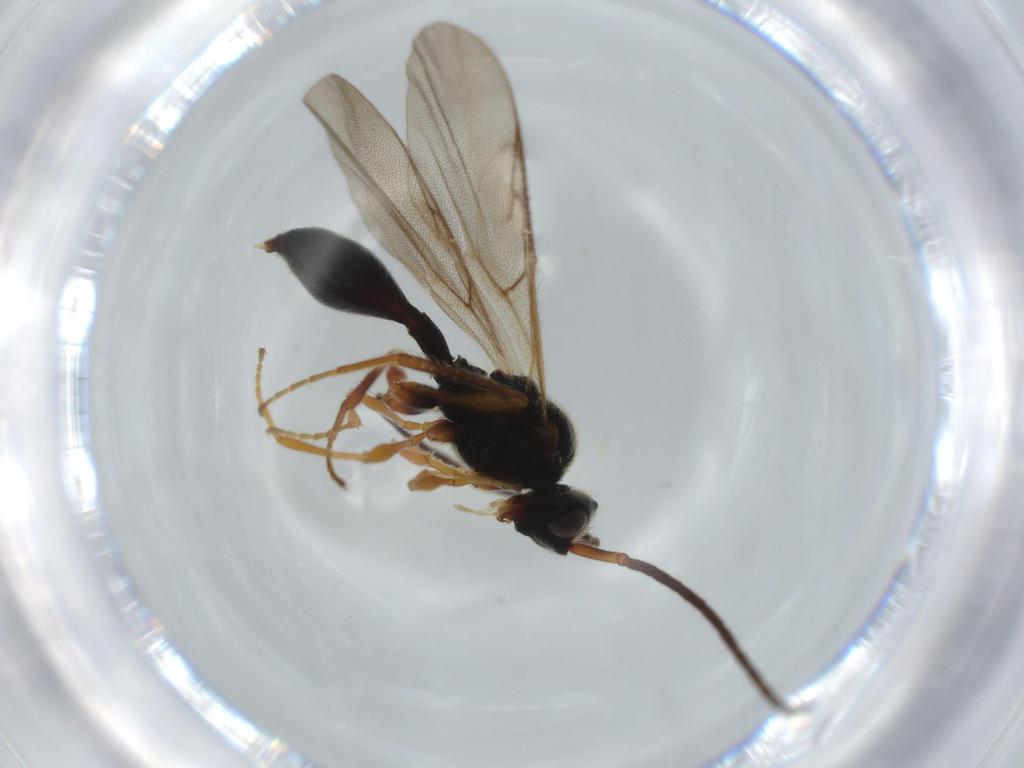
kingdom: Animalia
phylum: Arthropoda
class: Insecta
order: Hymenoptera
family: Diapriidae
